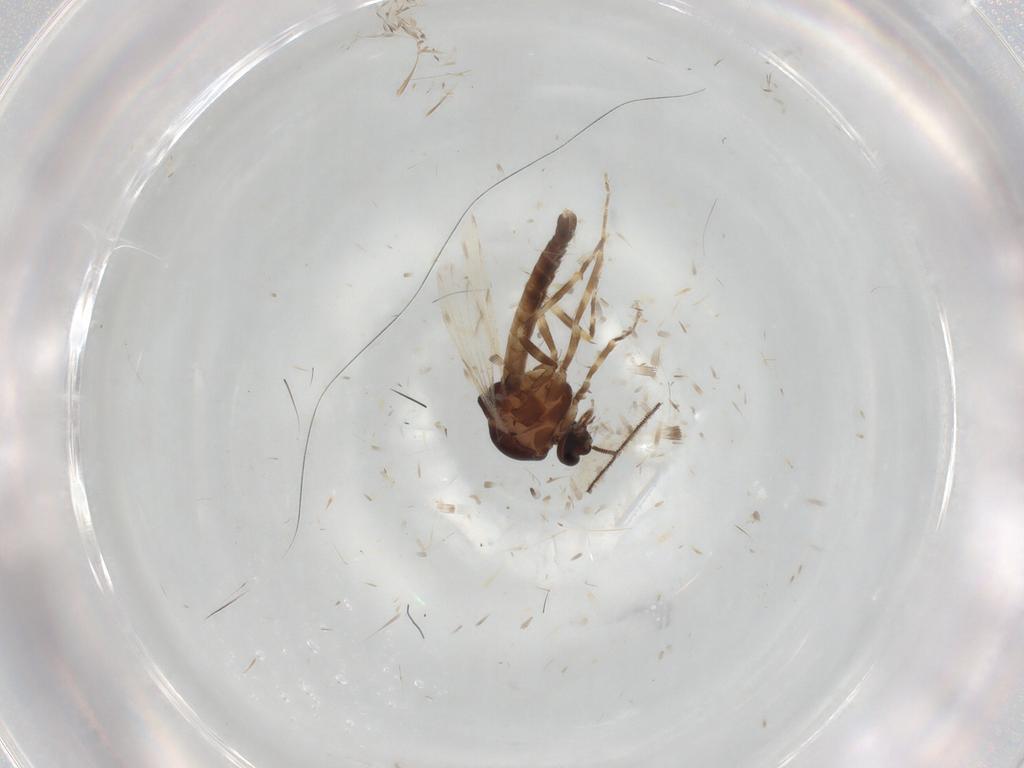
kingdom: Animalia
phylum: Arthropoda
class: Insecta
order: Diptera
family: Ceratopogonidae
